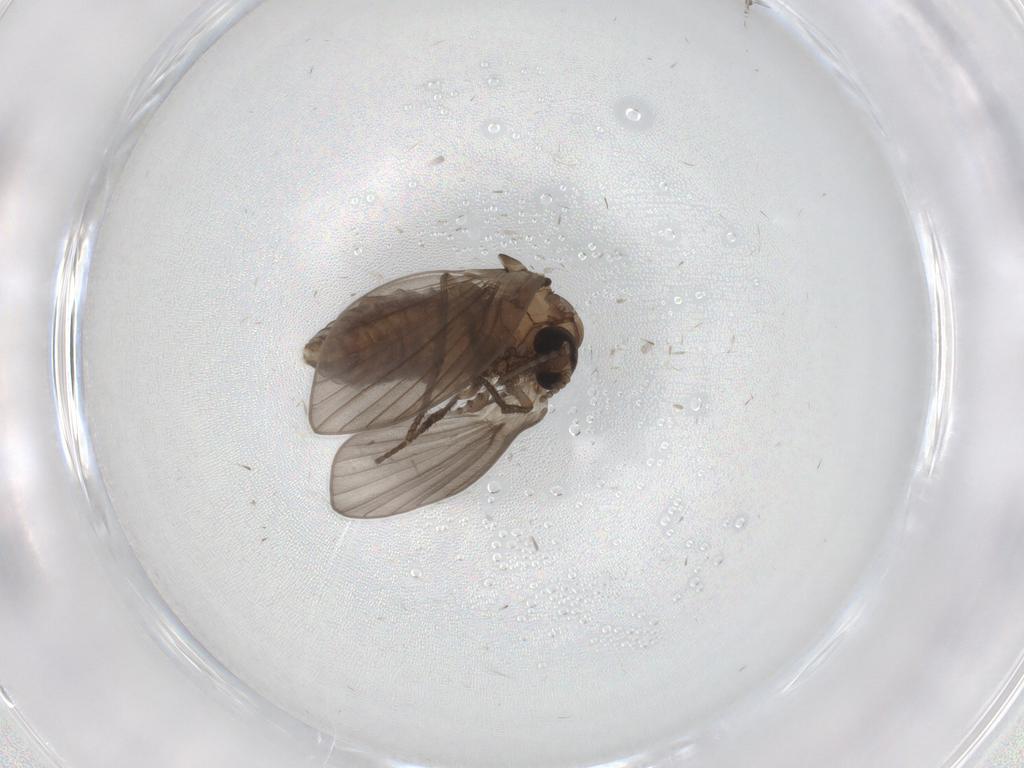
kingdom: Animalia
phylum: Arthropoda
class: Insecta
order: Diptera
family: Psychodidae
